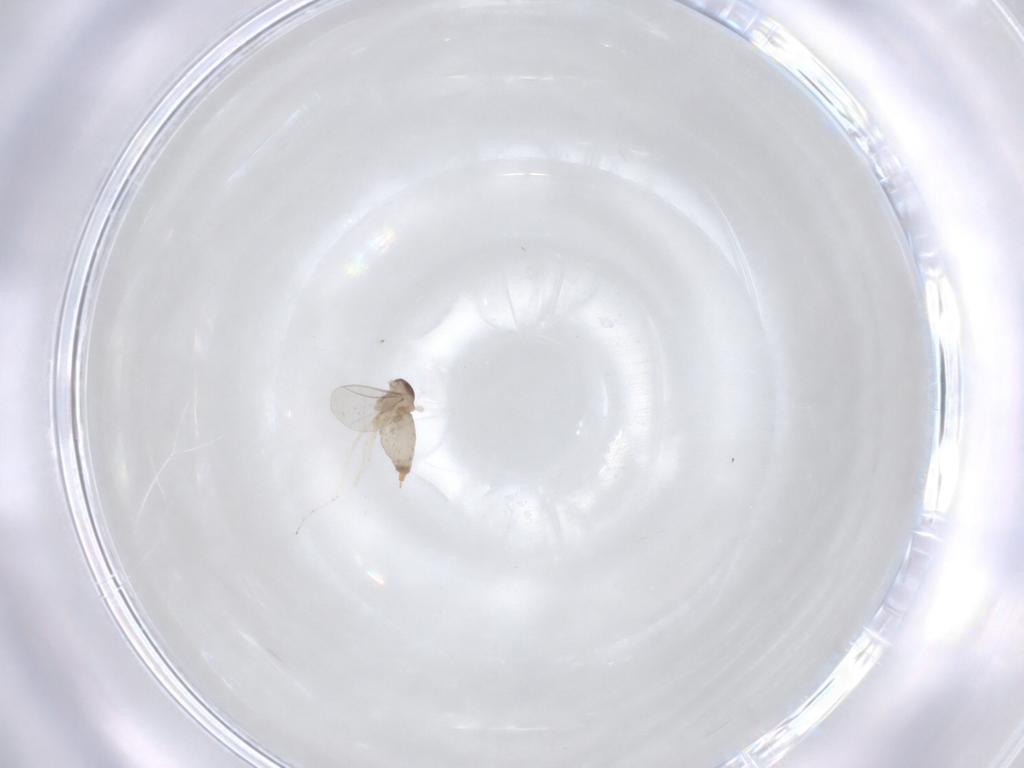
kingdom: Animalia
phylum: Arthropoda
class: Insecta
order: Diptera
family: Cecidomyiidae
